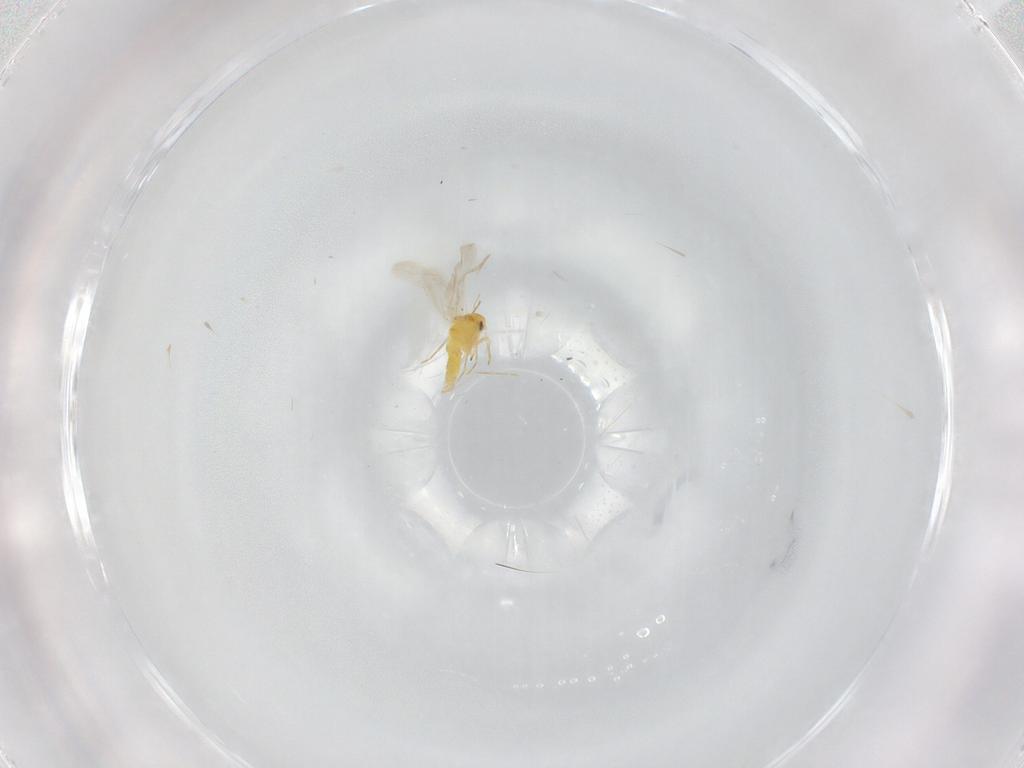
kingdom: Animalia
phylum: Arthropoda
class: Insecta
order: Hemiptera
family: Aleyrodidae
